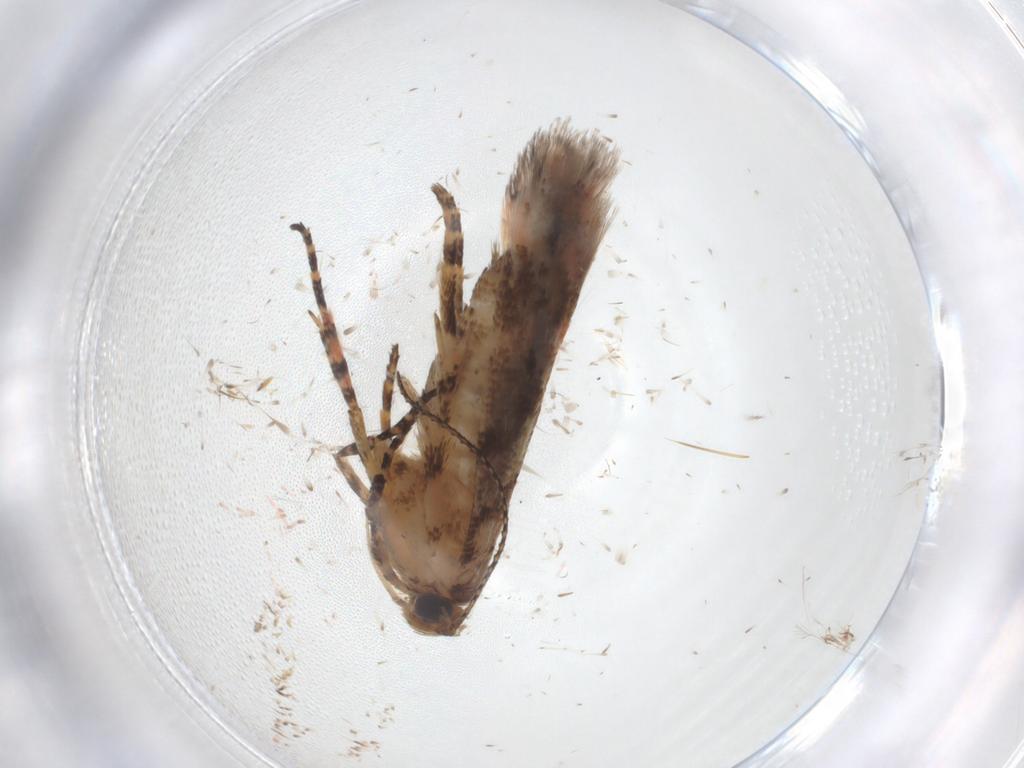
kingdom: Animalia
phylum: Arthropoda
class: Insecta
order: Lepidoptera
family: Gelechiidae
